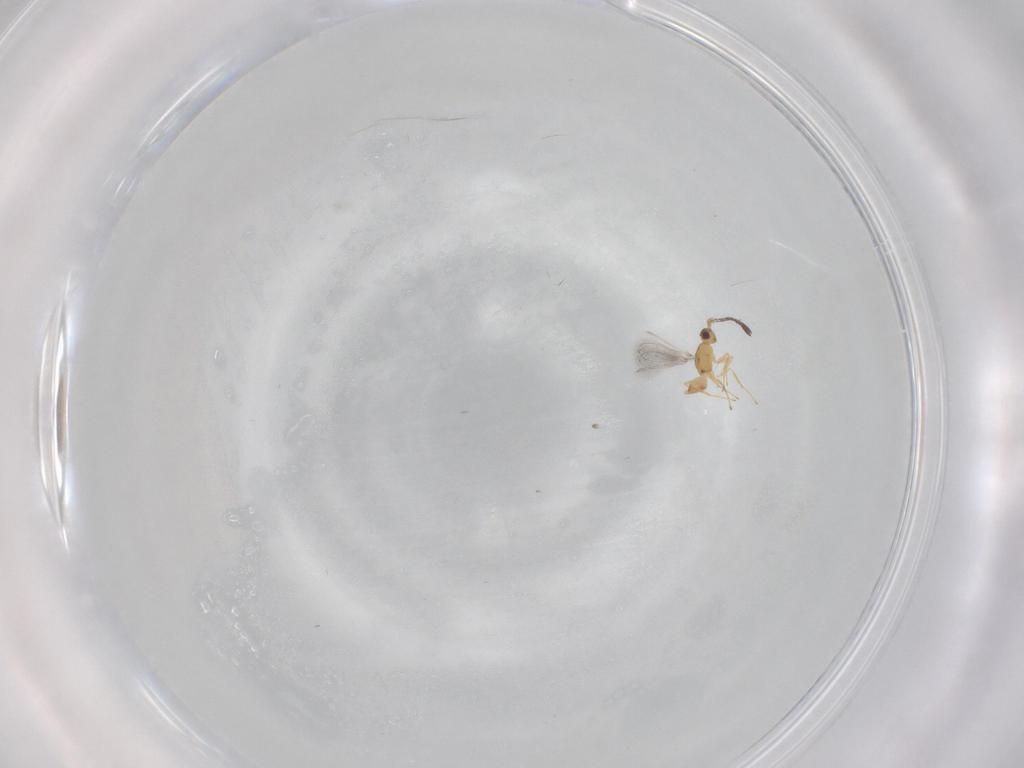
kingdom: Animalia
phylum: Arthropoda
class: Insecta
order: Hymenoptera
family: Mymaridae
